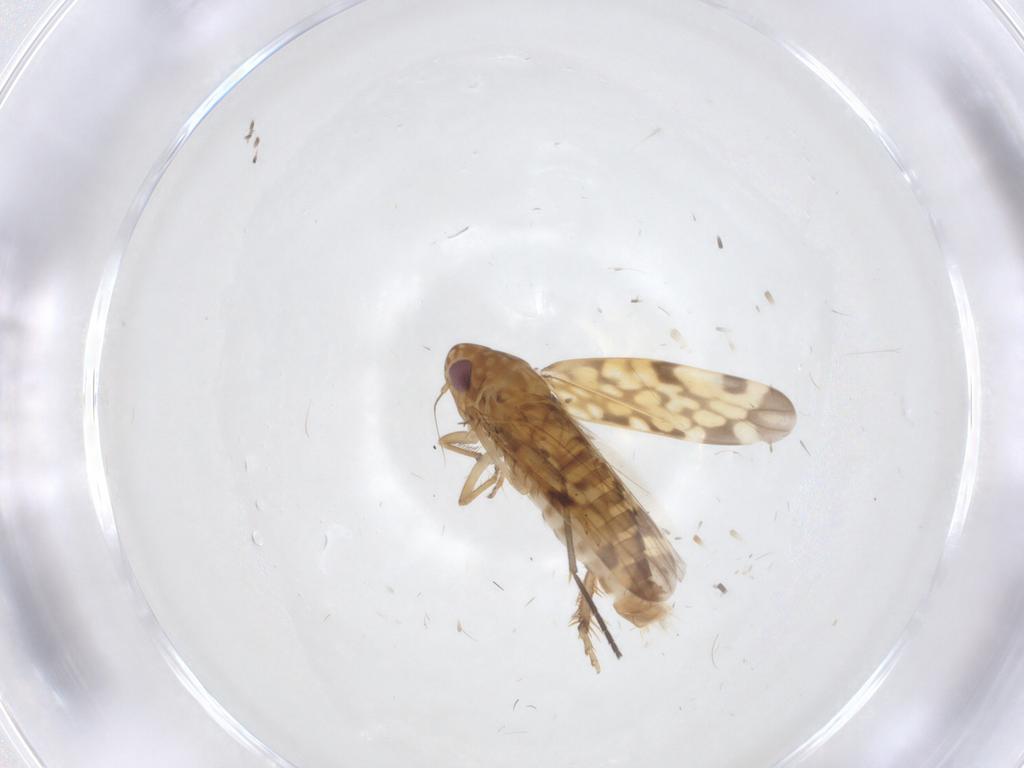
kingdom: Animalia
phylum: Arthropoda
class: Insecta
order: Hemiptera
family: Cicadellidae
